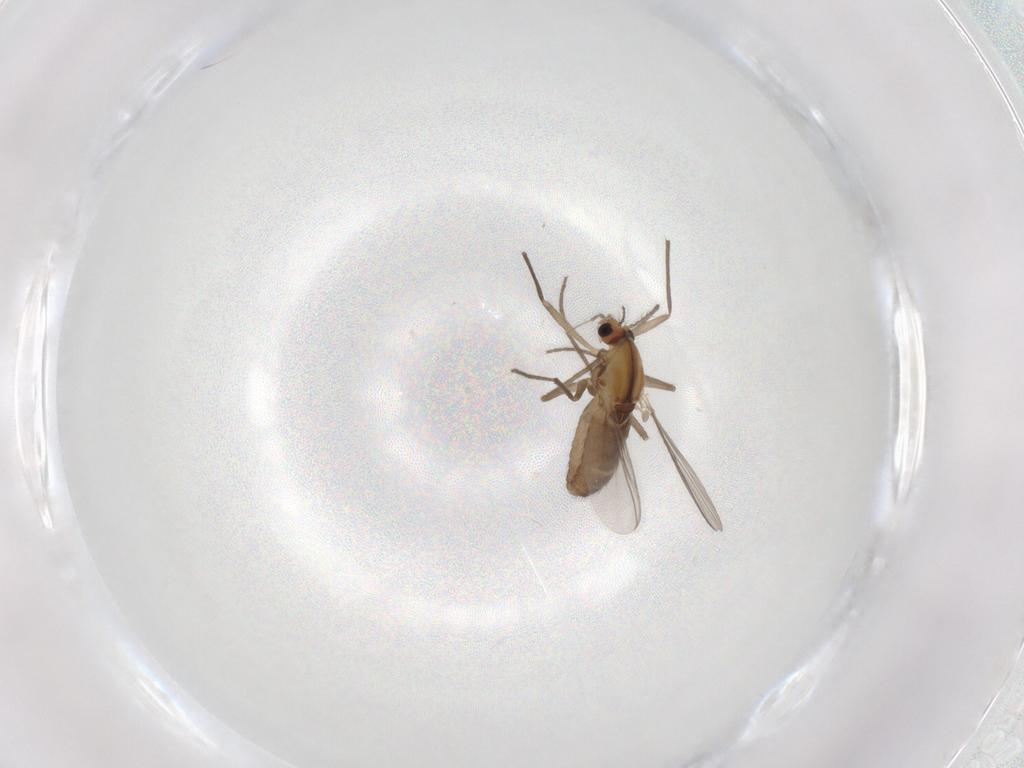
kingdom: Animalia
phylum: Arthropoda
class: Insecta
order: Diptera
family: Chironomidae
